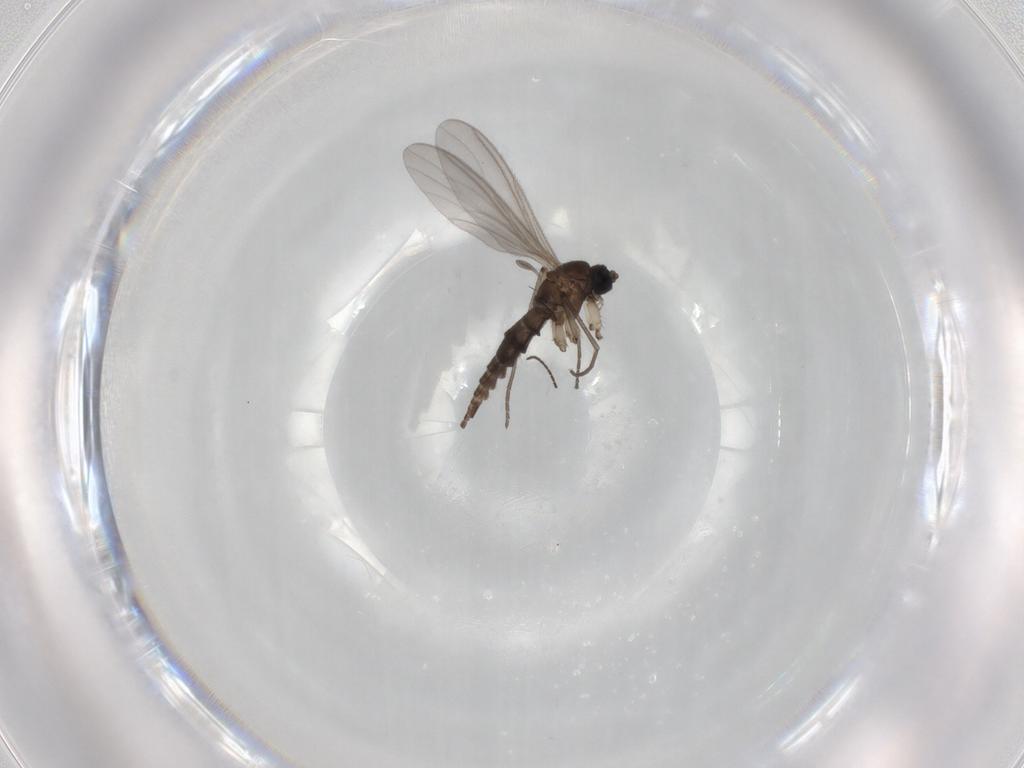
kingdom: Animalia
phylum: Arthropoda
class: Insecta
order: Diptera
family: Sciaridae
